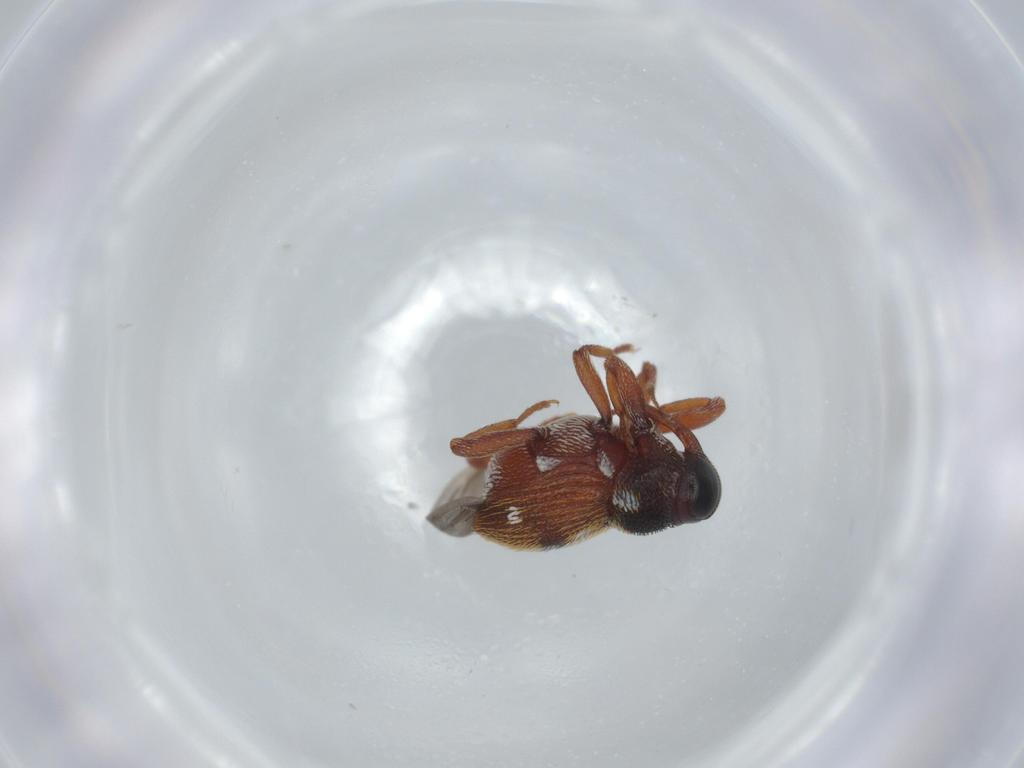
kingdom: Animalia
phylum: Arthropoda
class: Insecta
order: Coleoptera
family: Curculionidae
